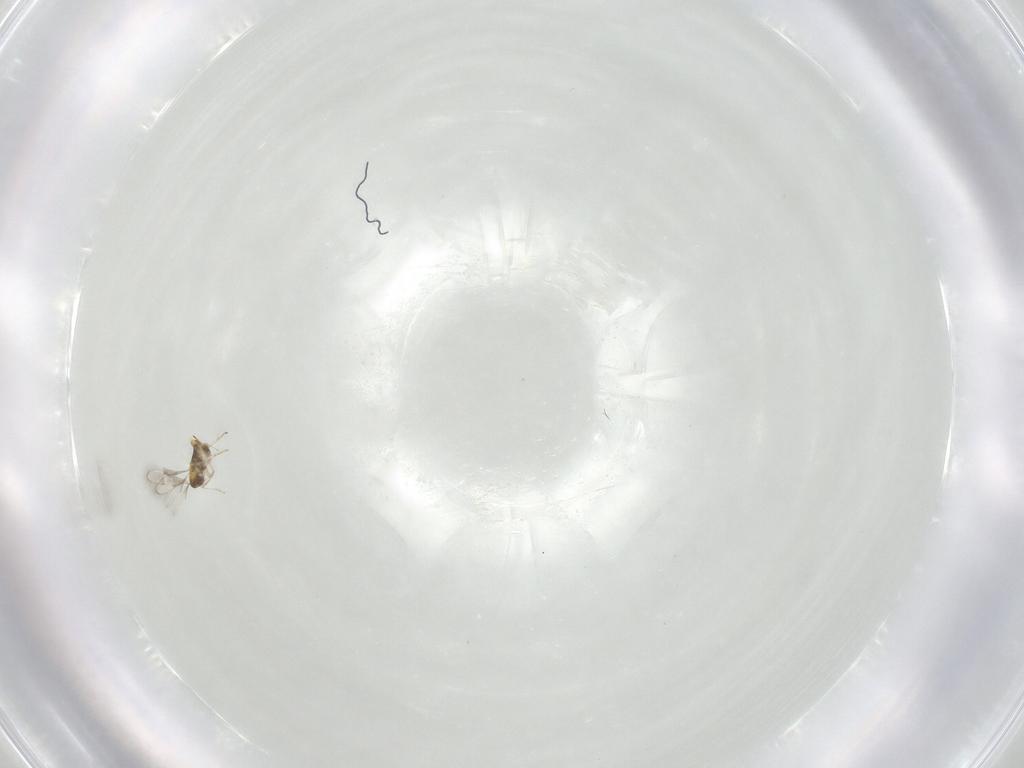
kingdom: Animalia
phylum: Arthropoda
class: Insecta
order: Hymenoptera
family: Aphelinidae
